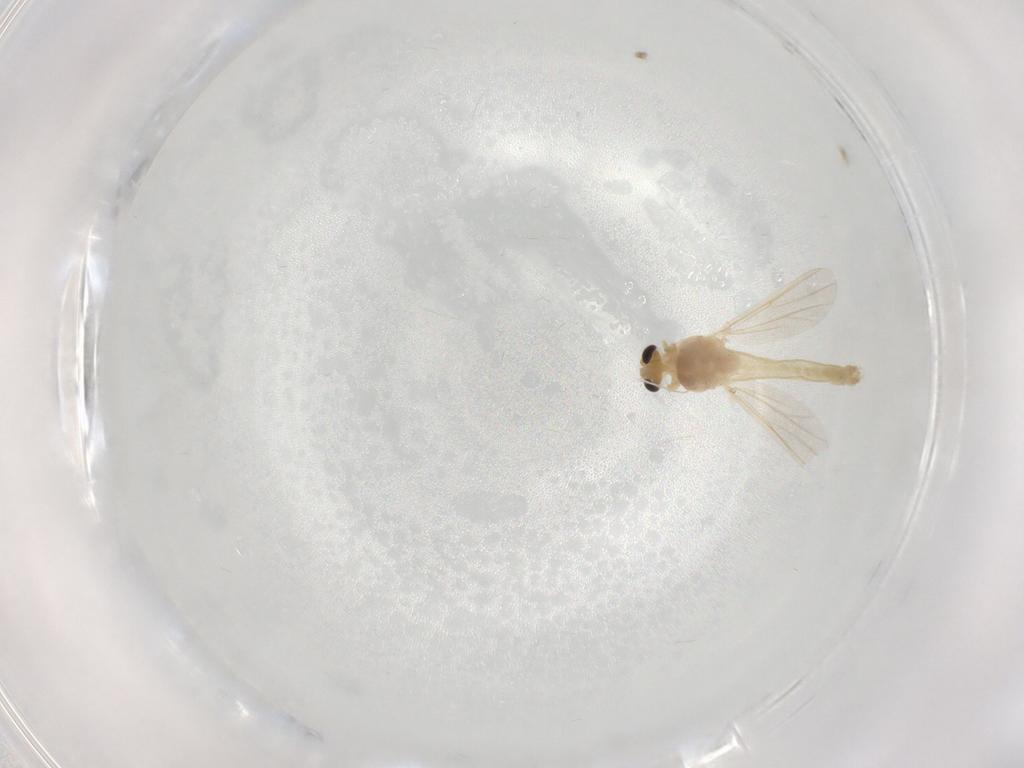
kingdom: Animalia
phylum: Arthropoda
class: Insecta
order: Diptera
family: Chironomidae
